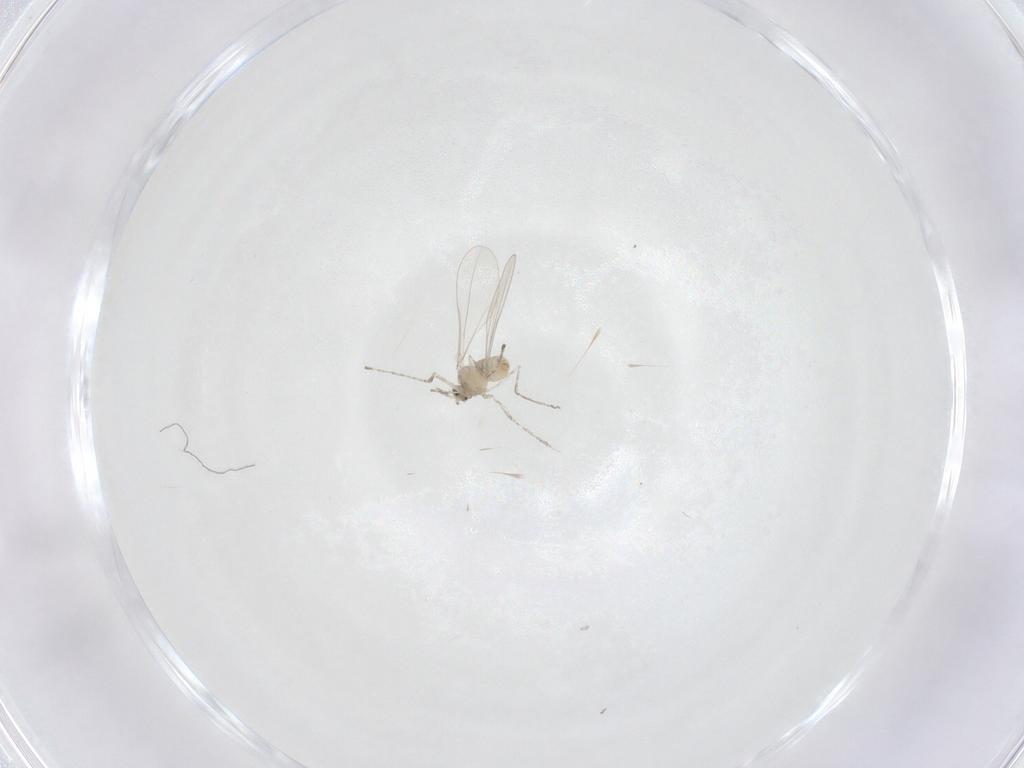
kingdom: Animalia
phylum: Arthropoda
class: Insecta
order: Diptera
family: Cecidomyiidae
